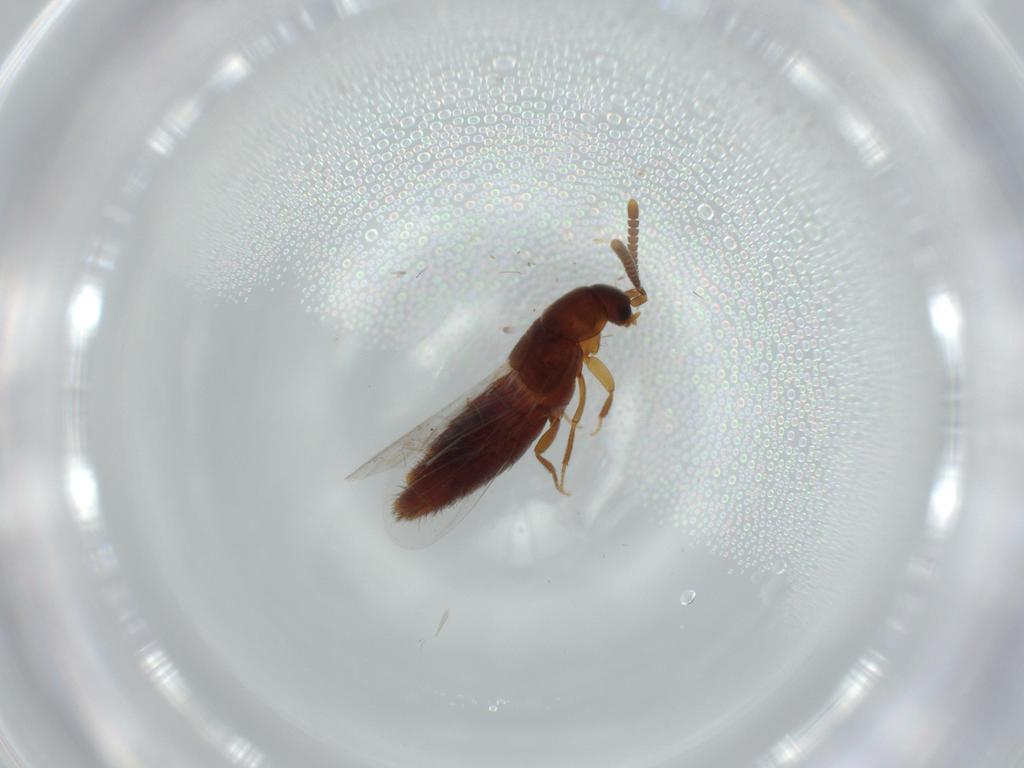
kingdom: Animalia
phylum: Arthropoda
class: Insecta
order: Coleoptera
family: Staphylinidae
